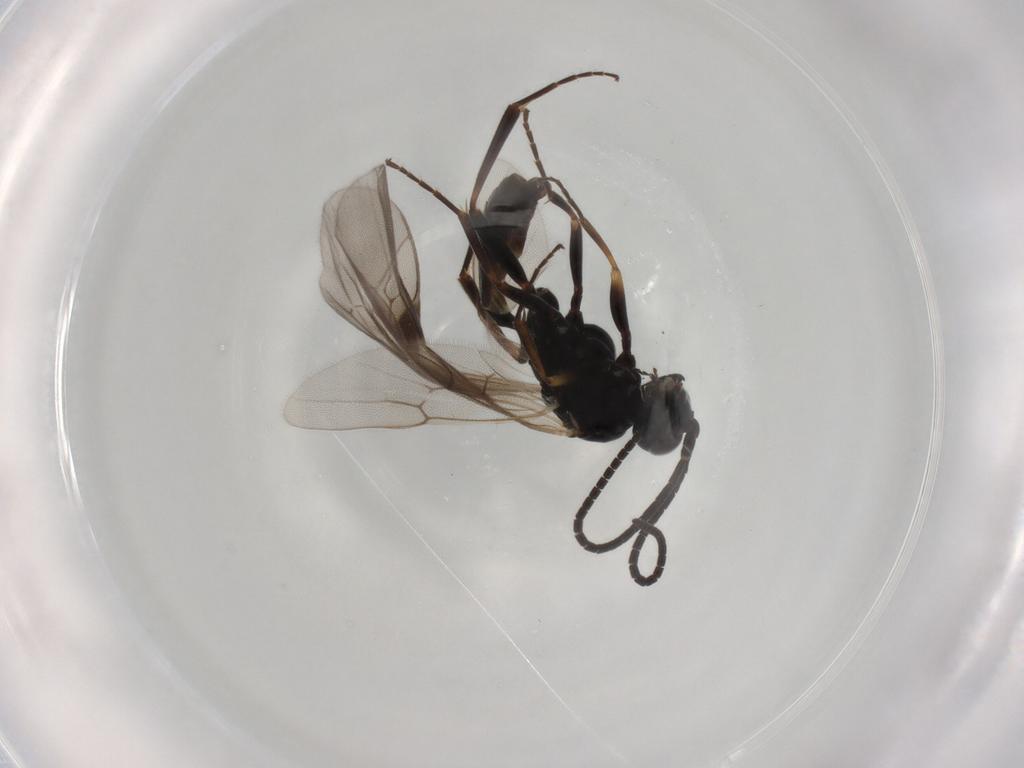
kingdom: Animalia
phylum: Arthropoda
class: Insecta
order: Hymenoptera
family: Ichneumonidae
